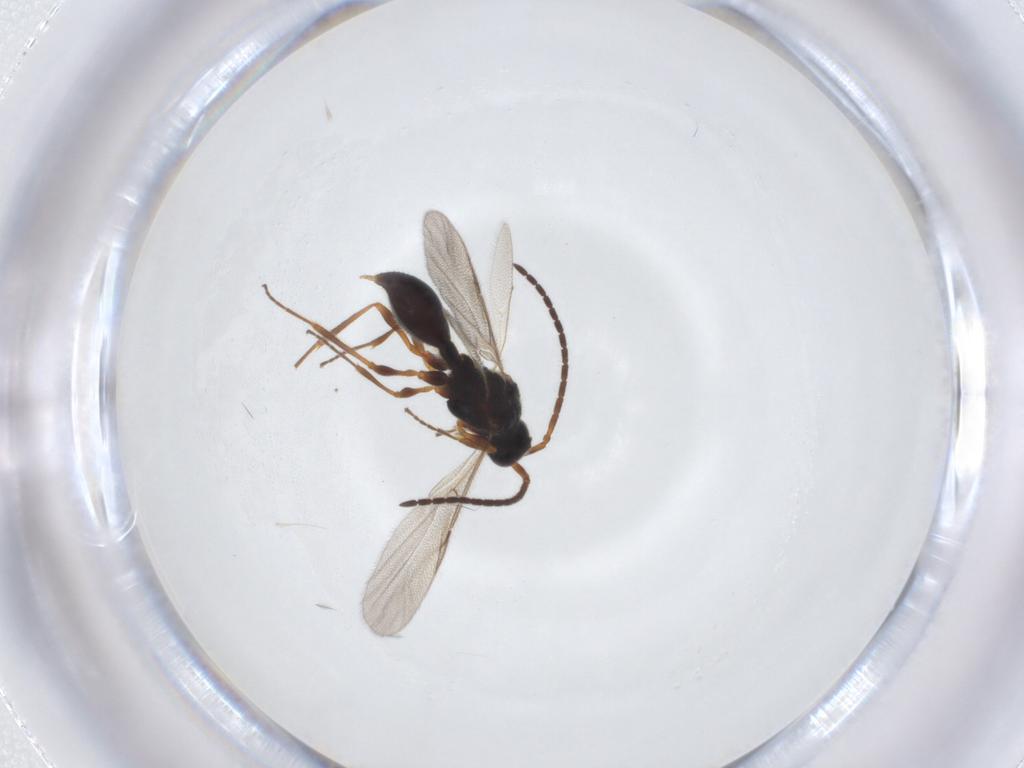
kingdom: Animalia
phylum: Arthropoda
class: Insecta
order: Hymenoptera
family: Diapriidae
